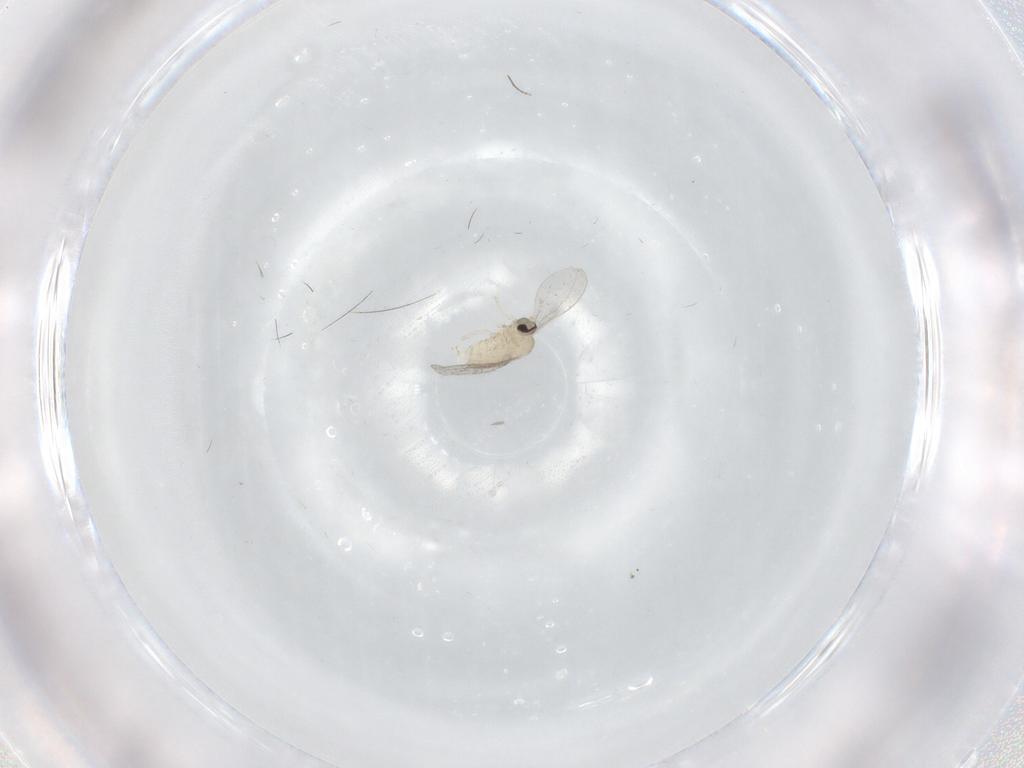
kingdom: Animalia
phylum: Arthropoda
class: Insecta
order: Diptera
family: Cecidomyiidae
